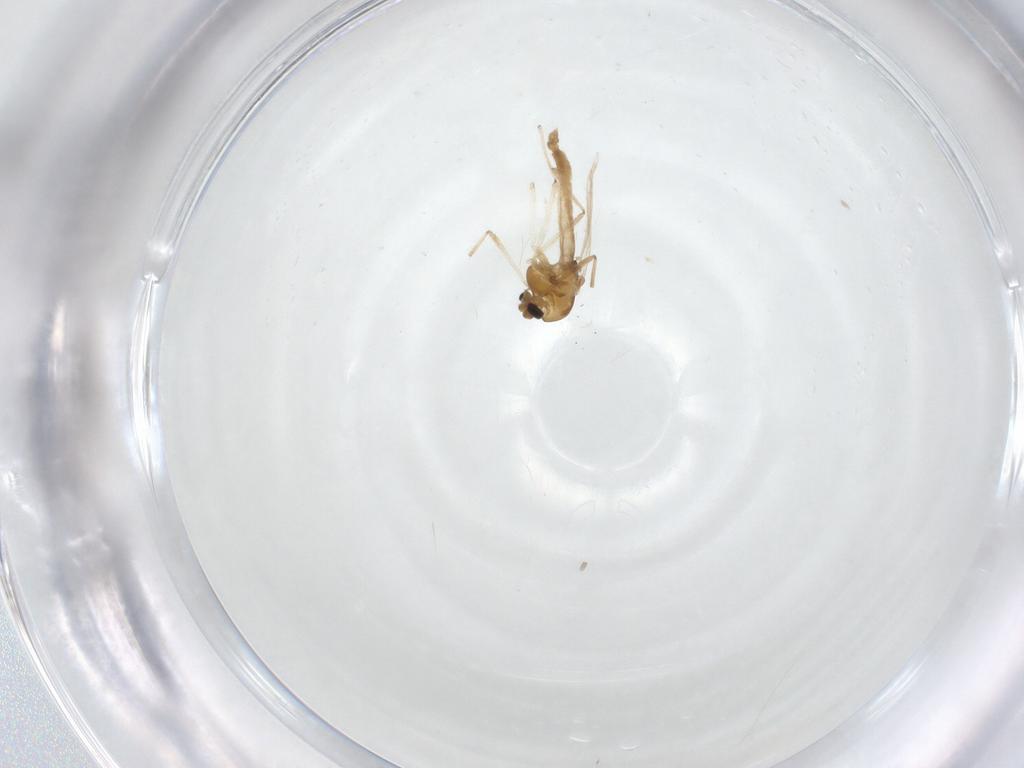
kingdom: Animalia
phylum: Arthropoda
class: Insecta
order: Diptera
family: Chironomidae
